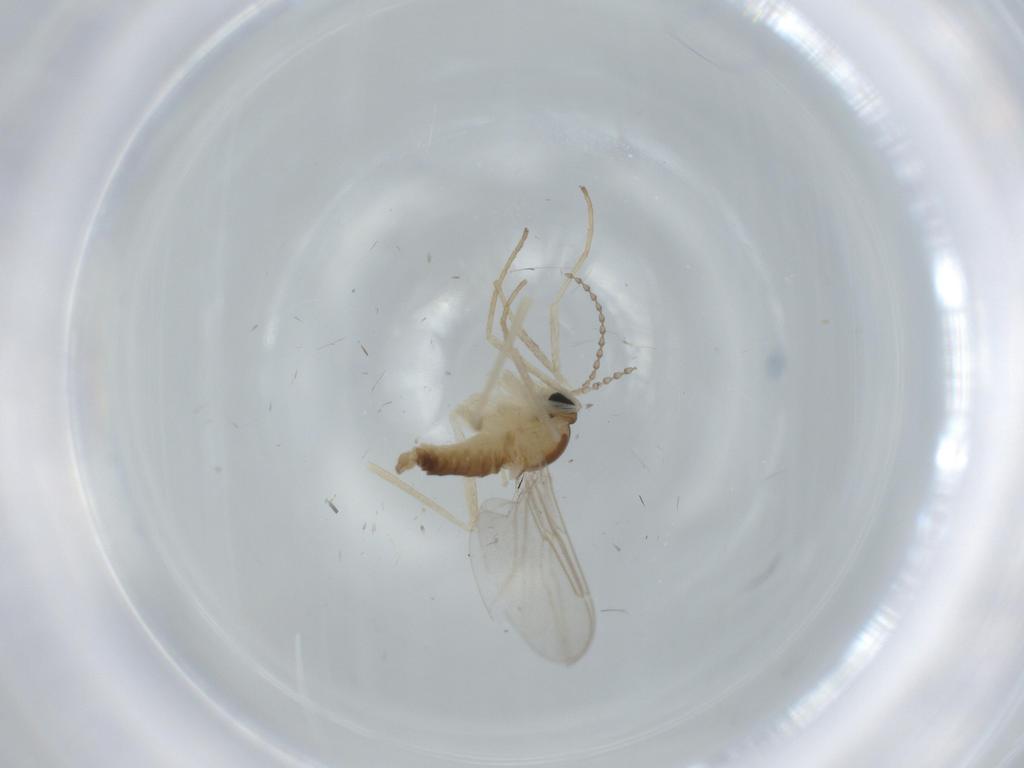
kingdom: Animalia
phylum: Arthropoda
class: Insecta
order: Diptera
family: Cecidomyiidae
